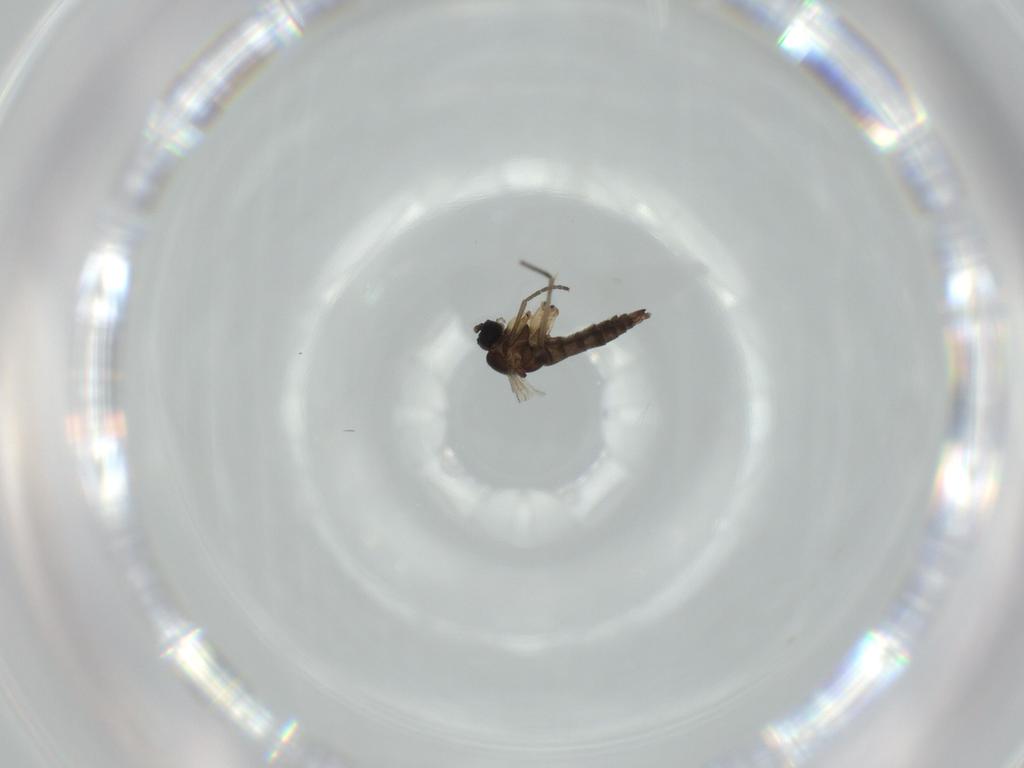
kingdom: Animalia
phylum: Arthropoda
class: Insecta
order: Diptera
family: Sciaridae
